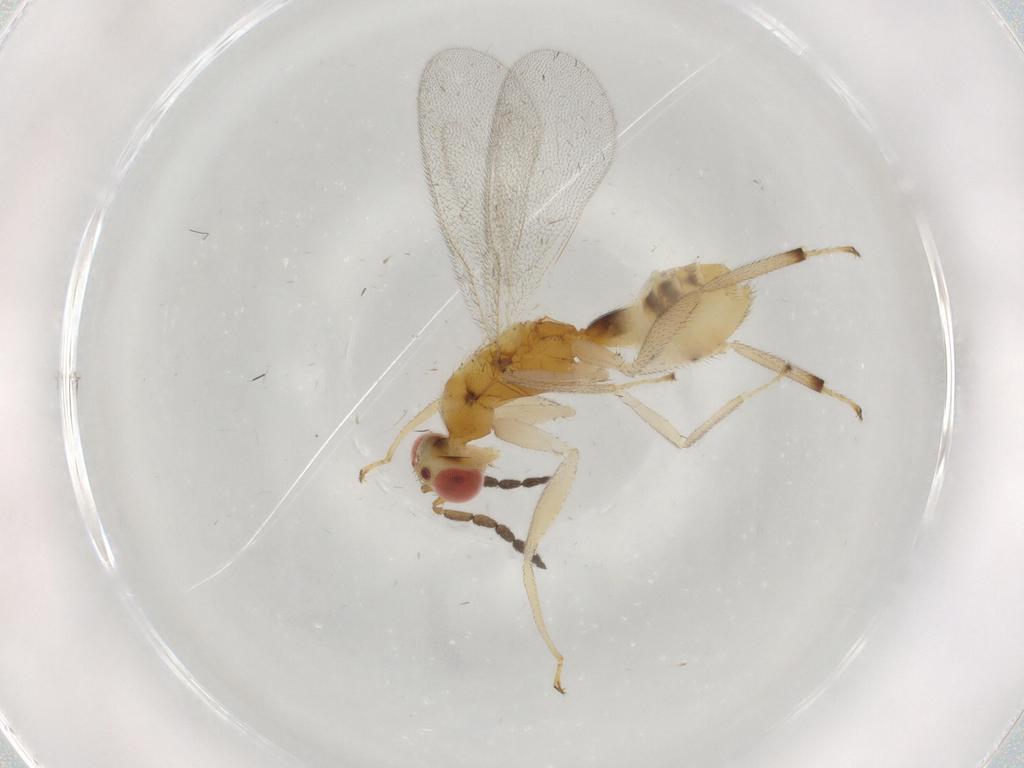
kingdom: Animalia
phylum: Arthropoda
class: Insecta
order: Hymenoptera
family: Eulophidae
